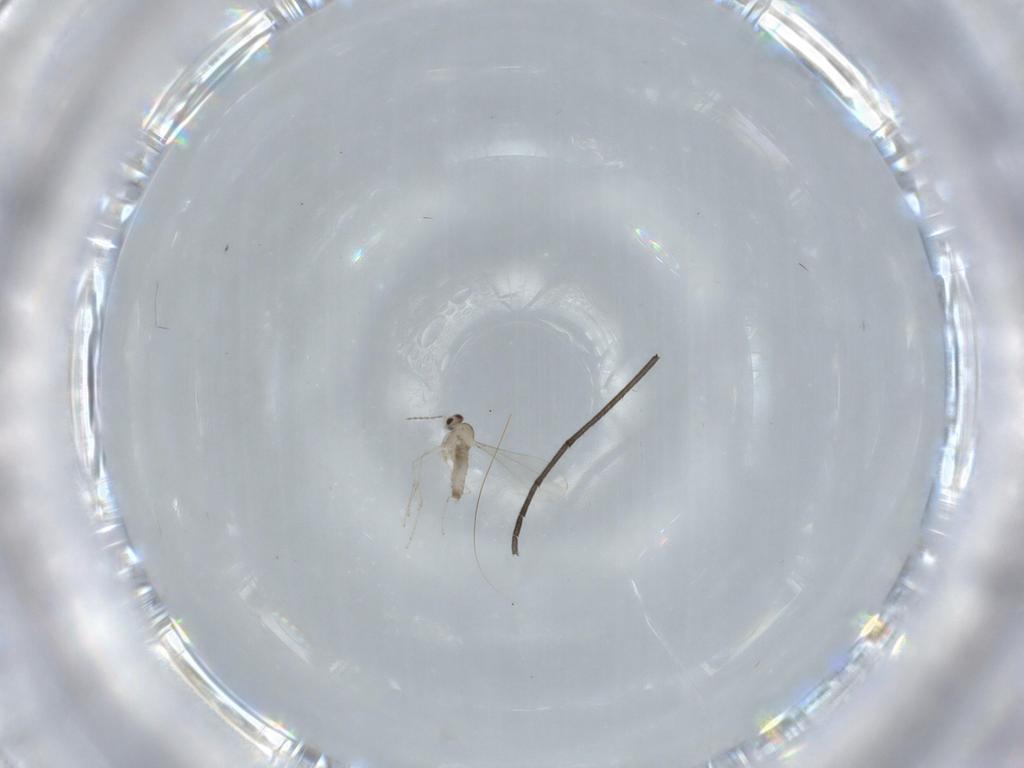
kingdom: Animalia
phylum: Arthropoda
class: Insecta
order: Diptera
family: Cecidomyiidae
